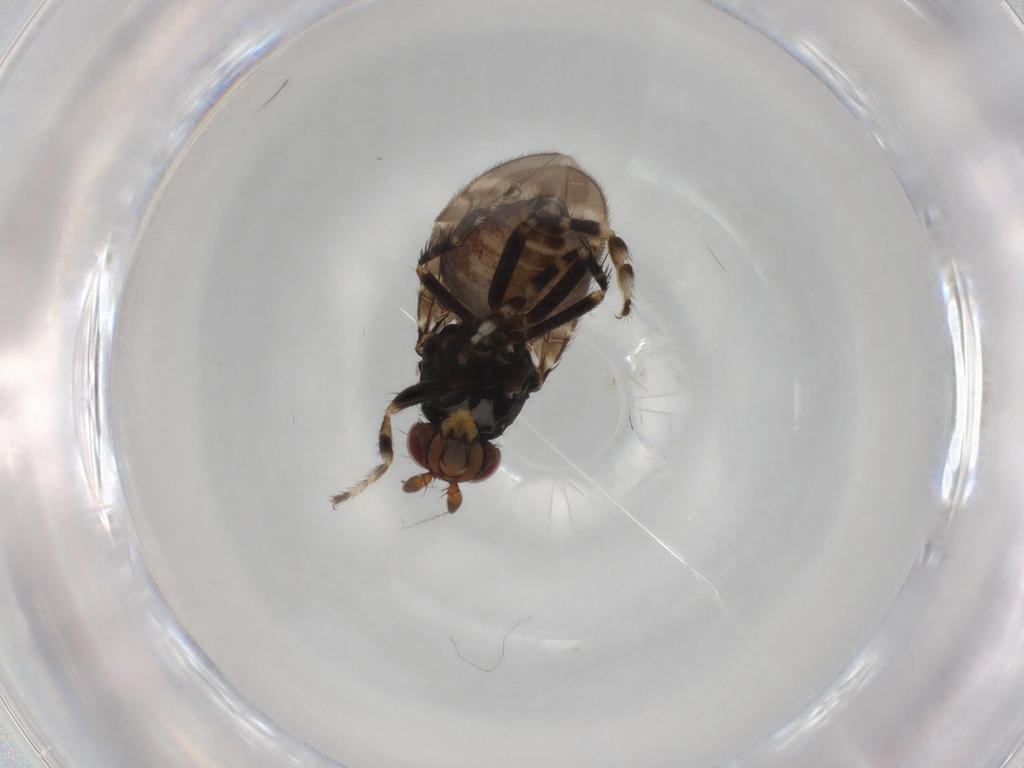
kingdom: Animalia
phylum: Arthropoda
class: Insecta
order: Diptera
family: Sphaeroceridae
